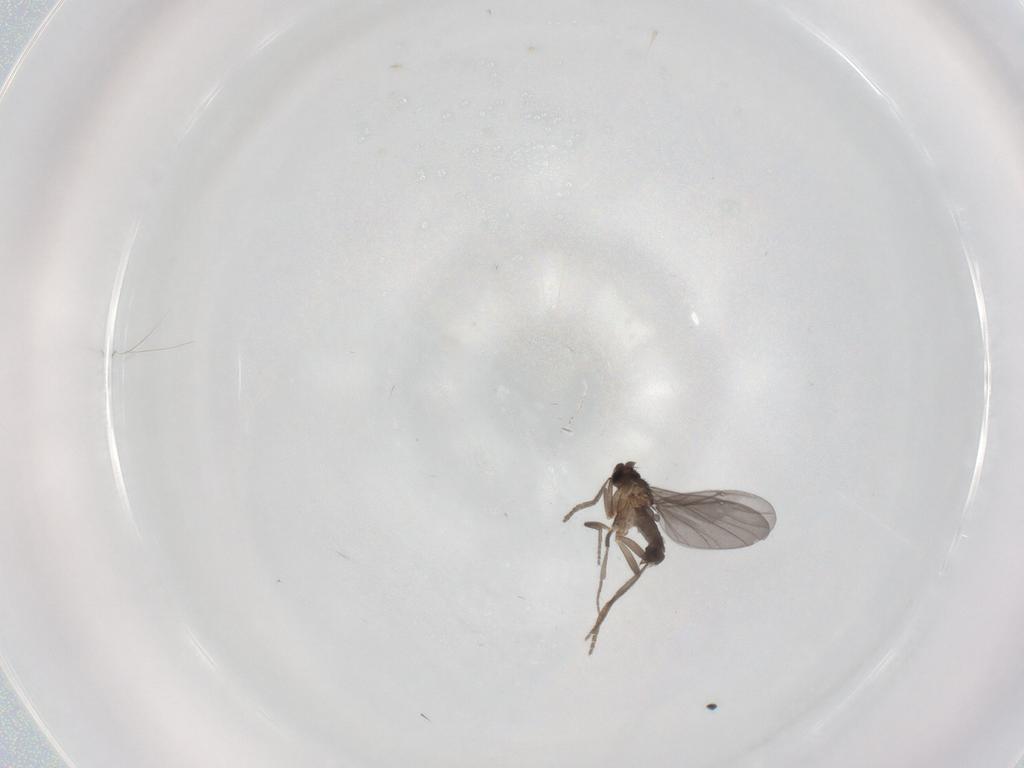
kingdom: Animalia
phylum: Arthropoda
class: Insecta
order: Diptera
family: Phoridae
